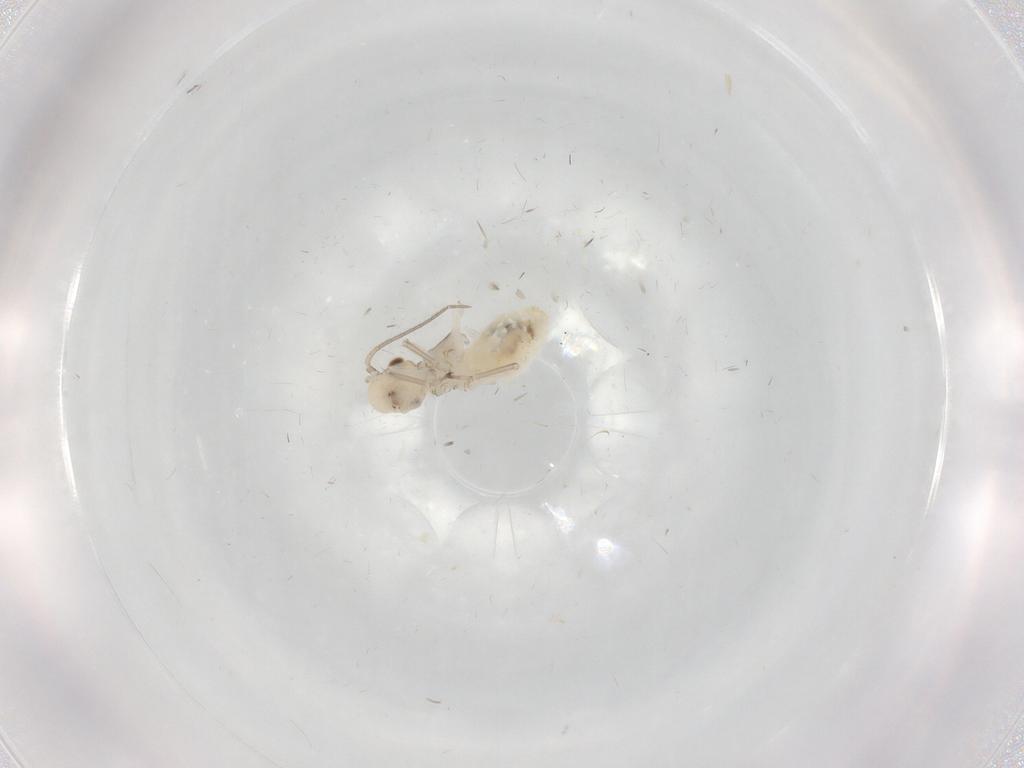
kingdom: Animalia
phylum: Arthropoda
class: Insecta
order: Psocodea
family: Caeciliusidae
